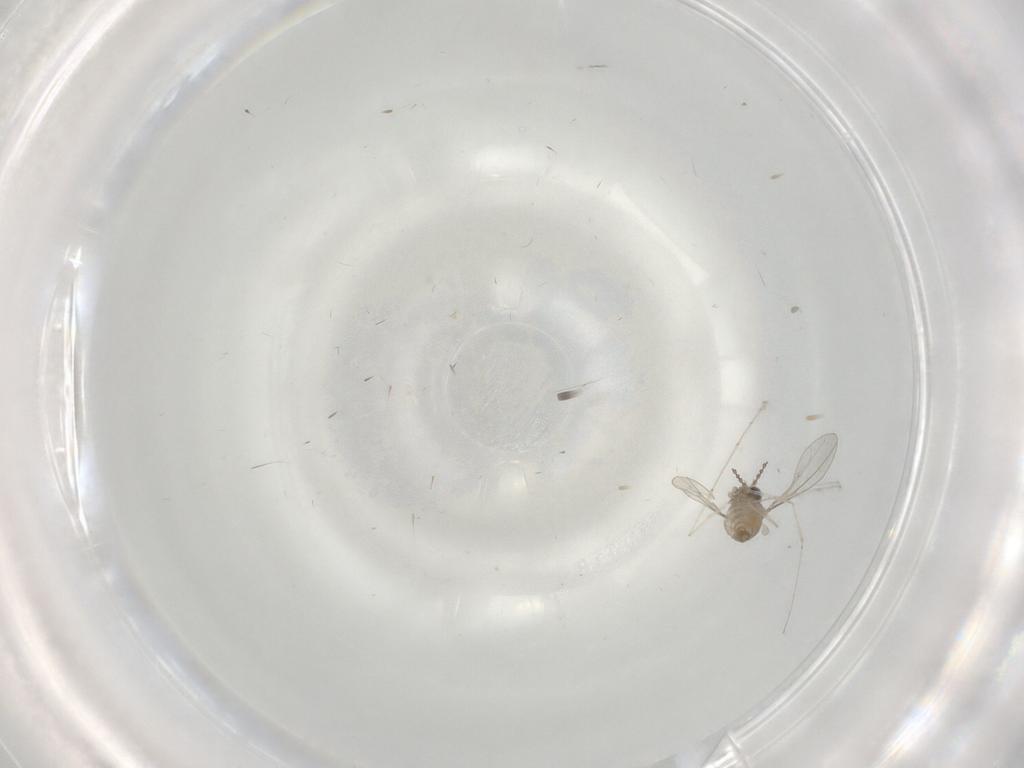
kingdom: Animalia
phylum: Arthropoda
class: Insecta
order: Diptera
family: Cecidomyiidae
